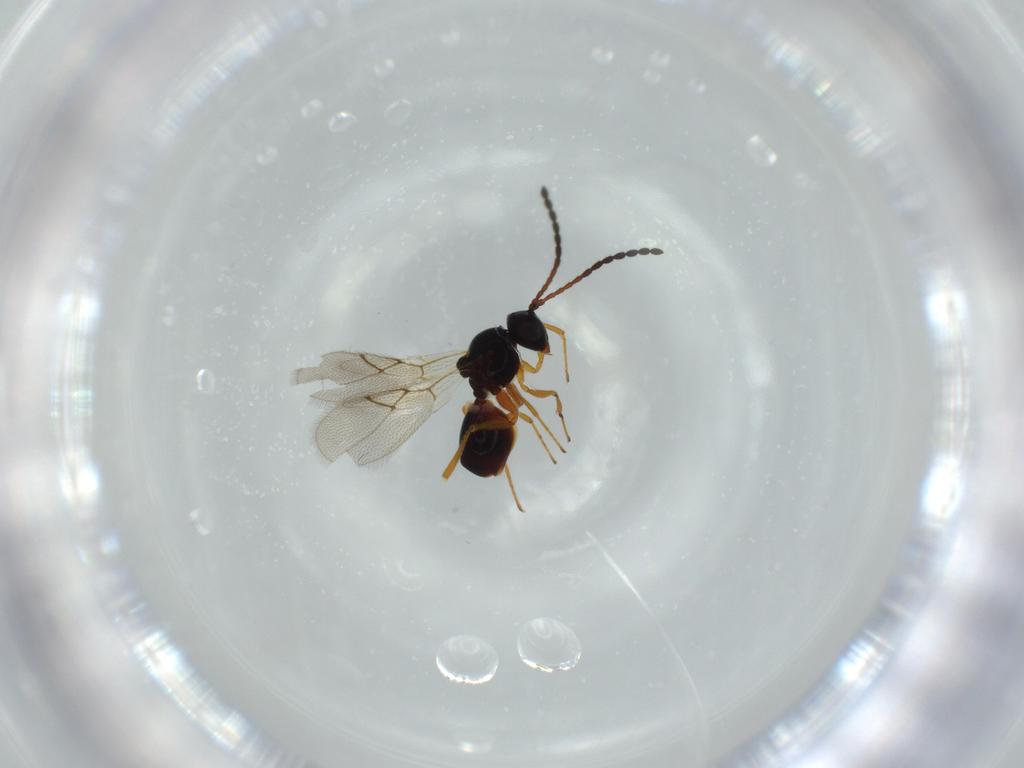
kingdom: Animalia
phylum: Arthropoda
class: Insecta
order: Hymenoptera
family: Figitidae
